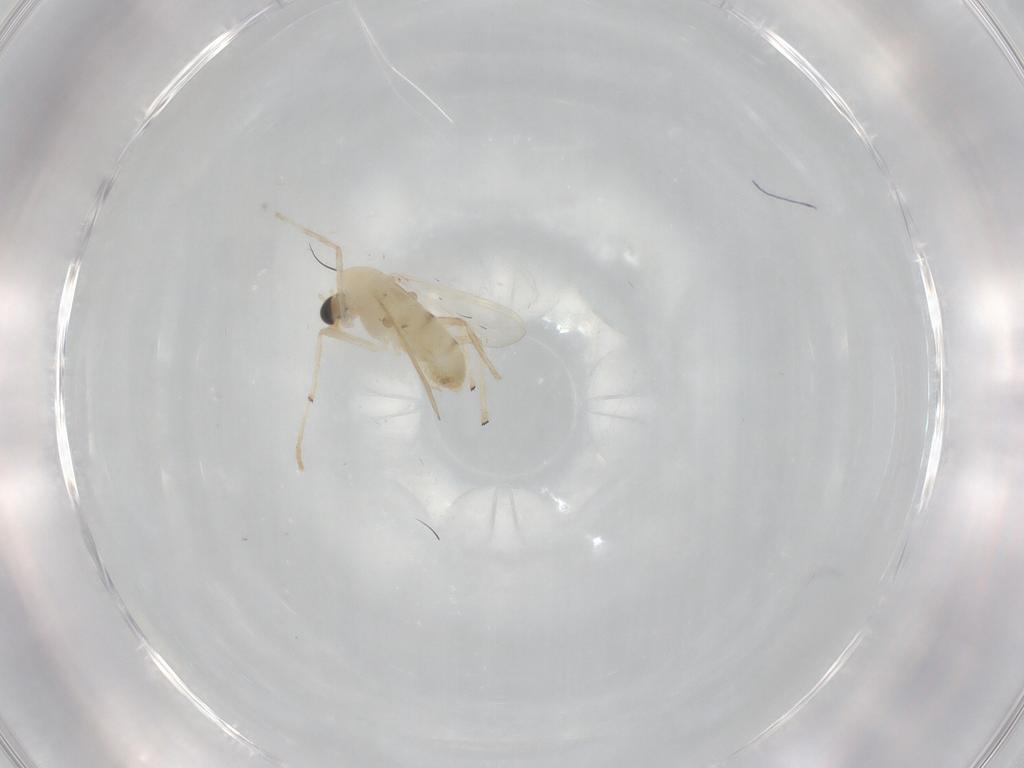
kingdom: Animalia
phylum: Arthropoda
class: Insecta
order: Diptera
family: Chironomidae
